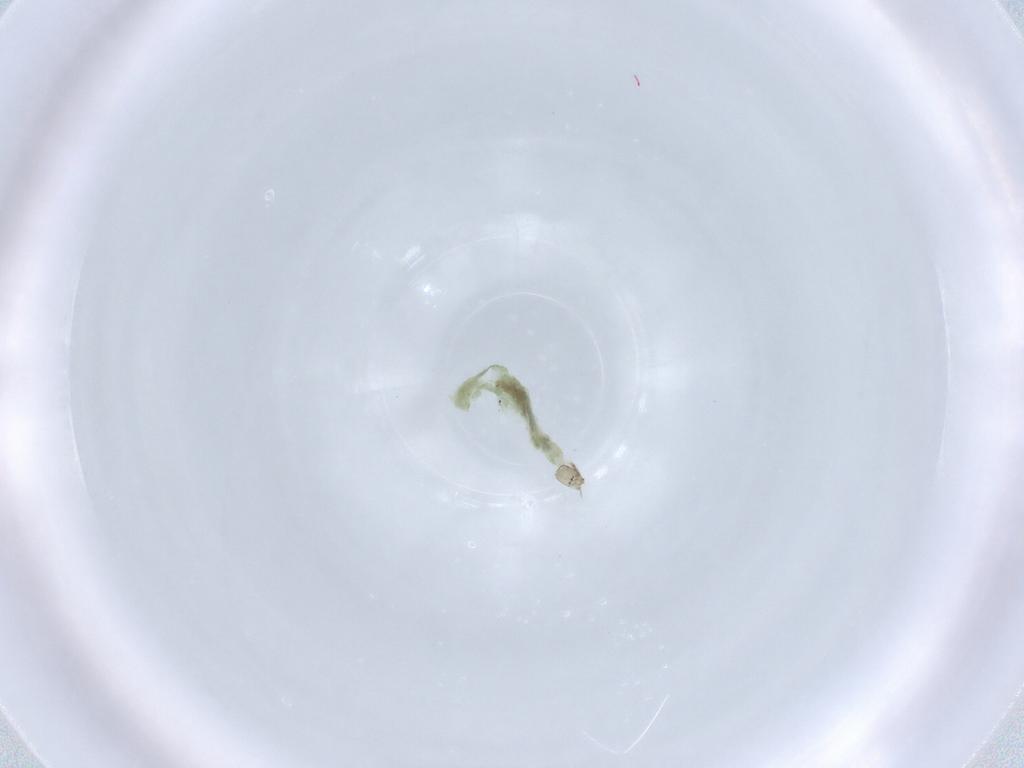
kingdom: Animalia
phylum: Arthropoda
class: Insecta
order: Diptera
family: Chironomidae
